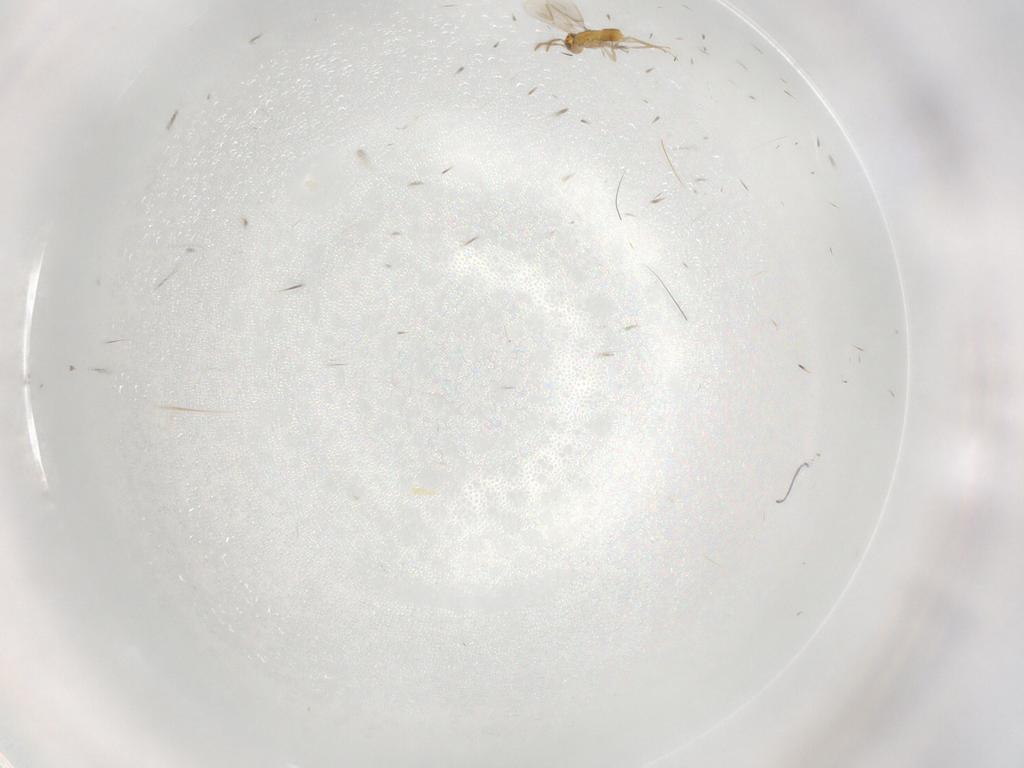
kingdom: Animalia
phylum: Arthropoda
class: Insecta
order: Hymenoptera
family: Aphelinidae
